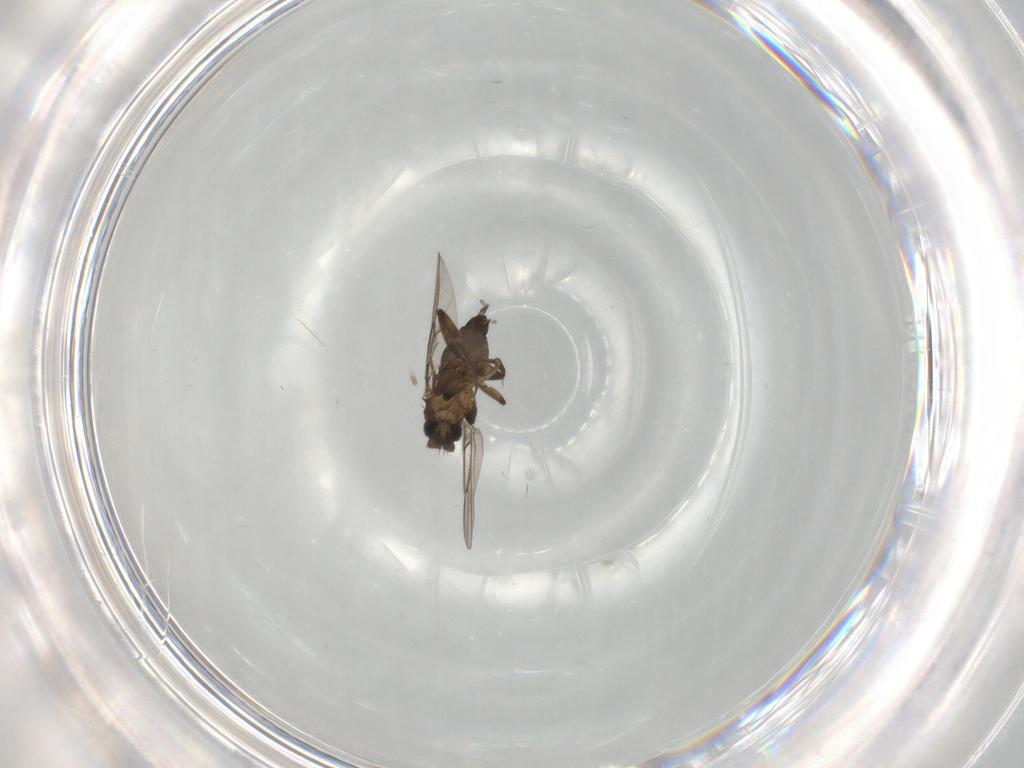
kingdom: Animalia
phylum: Arthropoda
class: Insecta
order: Diptera
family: Phoridae
